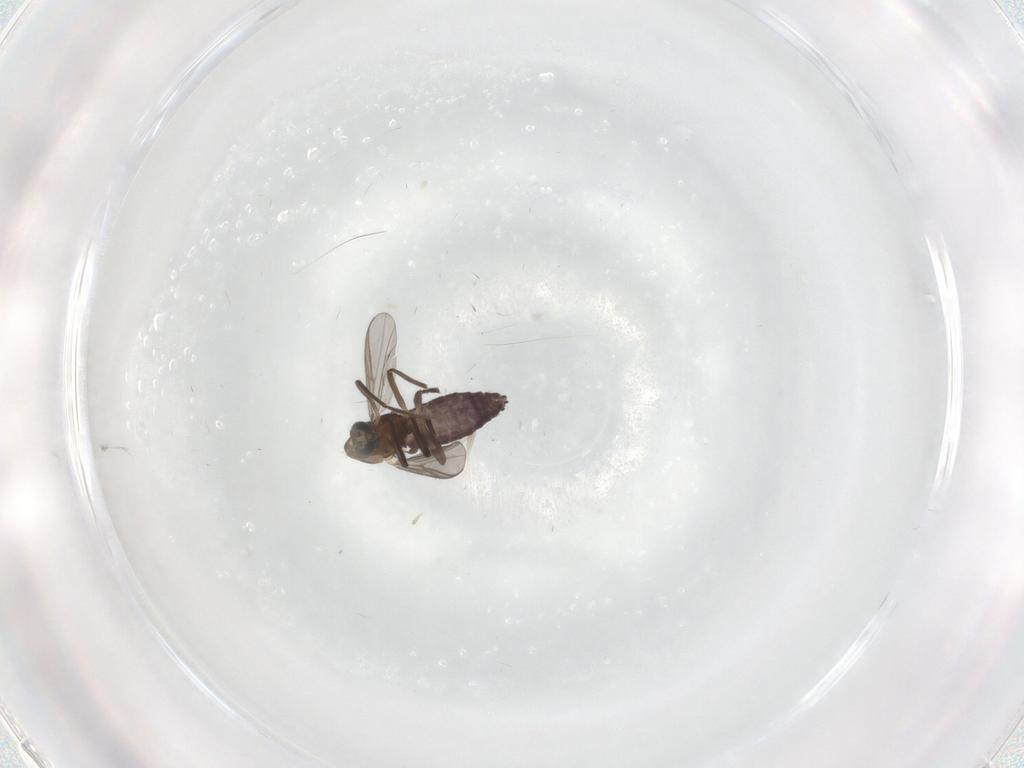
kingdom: Animalia
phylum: Arthropoda
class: Insecta
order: Diptera
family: Chironomidae
